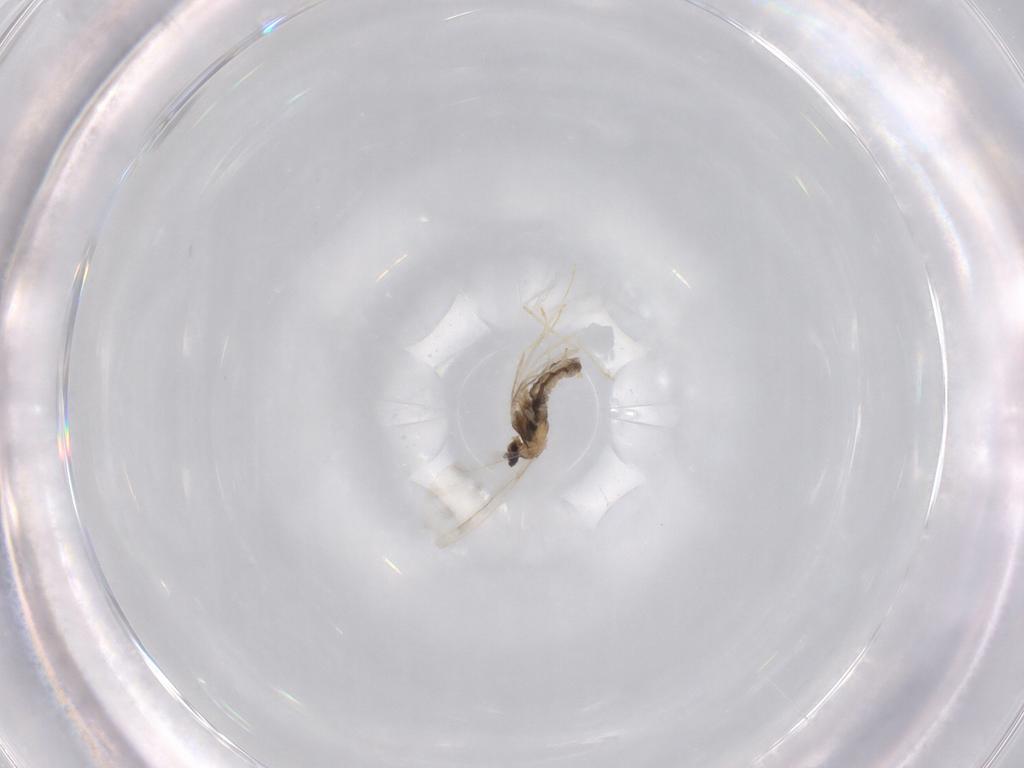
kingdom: Animalia
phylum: Arthropoda
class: Insecta
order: Diptera
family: Cecidomyiidae
